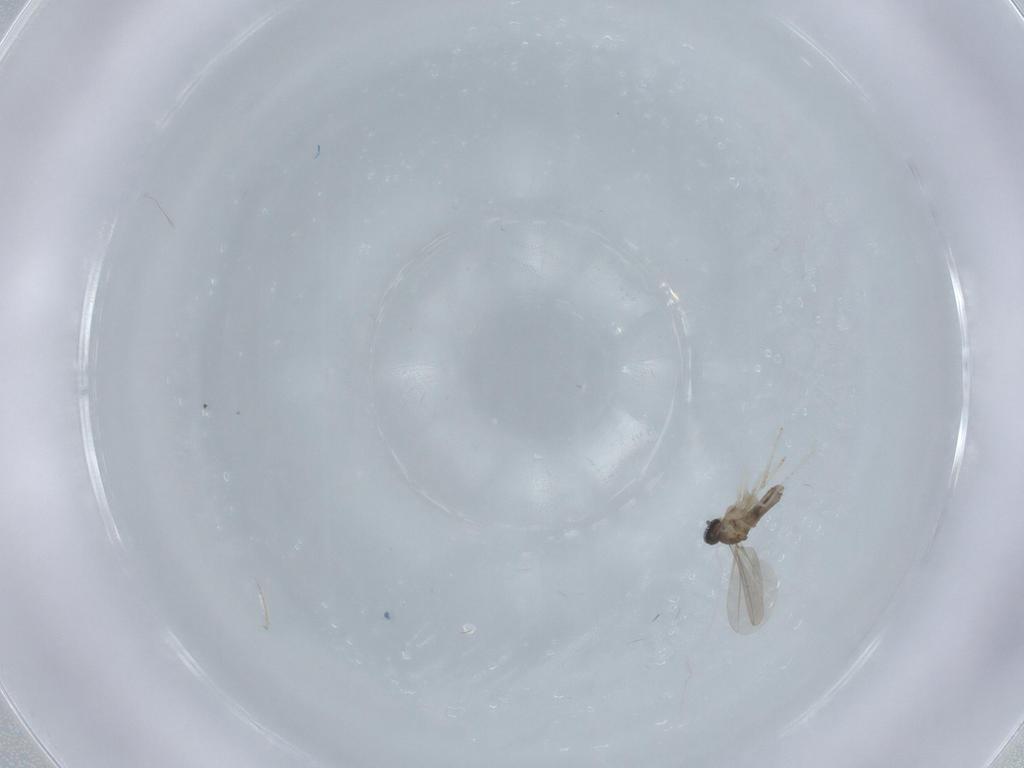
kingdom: Animalia
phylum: Arthropoda
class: Insecta
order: Diptera
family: Cecidomyiidae
